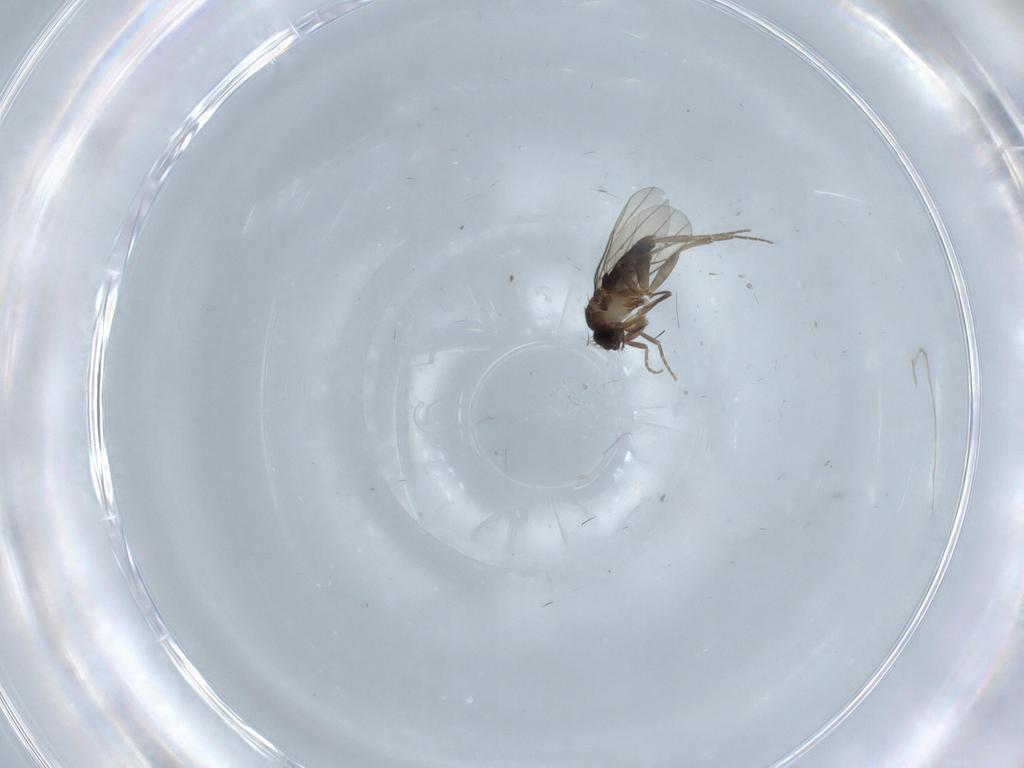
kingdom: Animalia
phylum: Arthropoda
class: Insecta
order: Diptera
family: Phoridae
